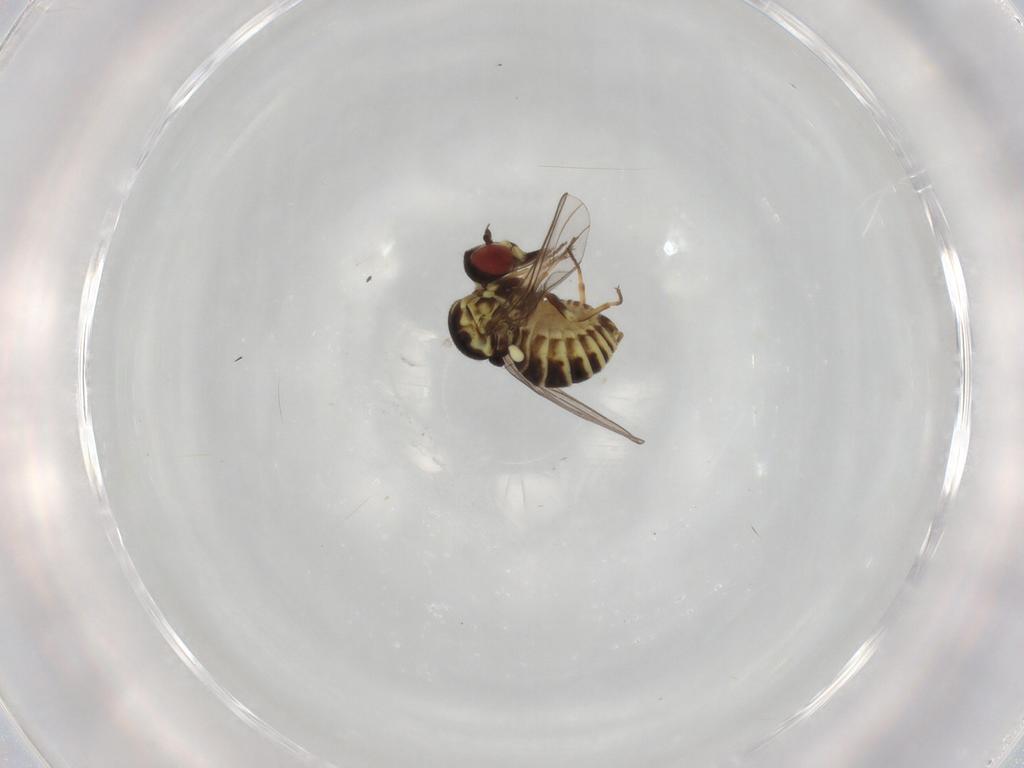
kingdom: Animalia
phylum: Arthropoda
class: Insecta
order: Diptera
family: Bombyliidae
